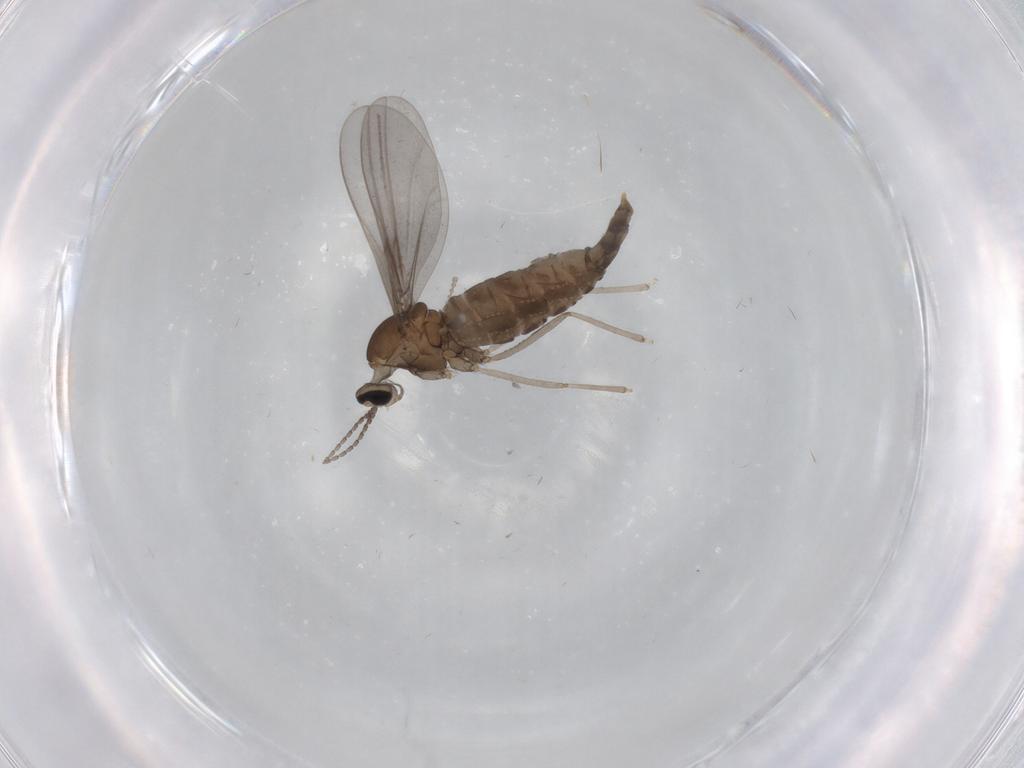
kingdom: Animalia
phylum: Arthropoda
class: Insecta
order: Diptera
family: Cecidomyiidae
